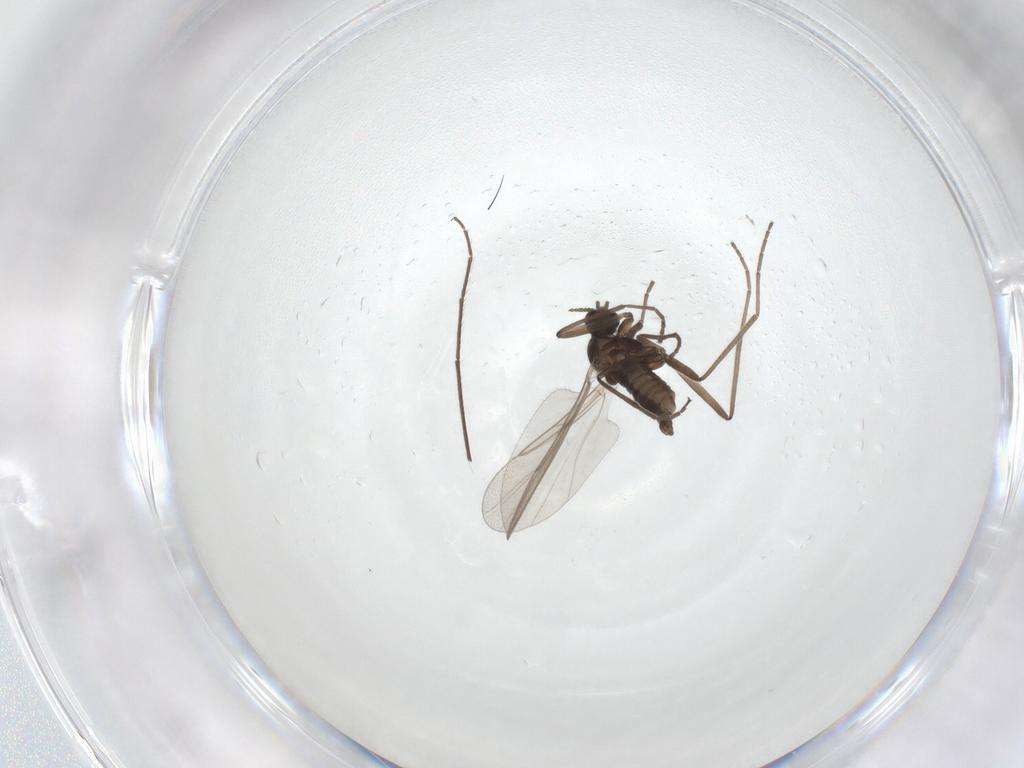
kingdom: Animalia
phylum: Arthropoda
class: Insecta
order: Diptera
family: Cecidomyiidae
